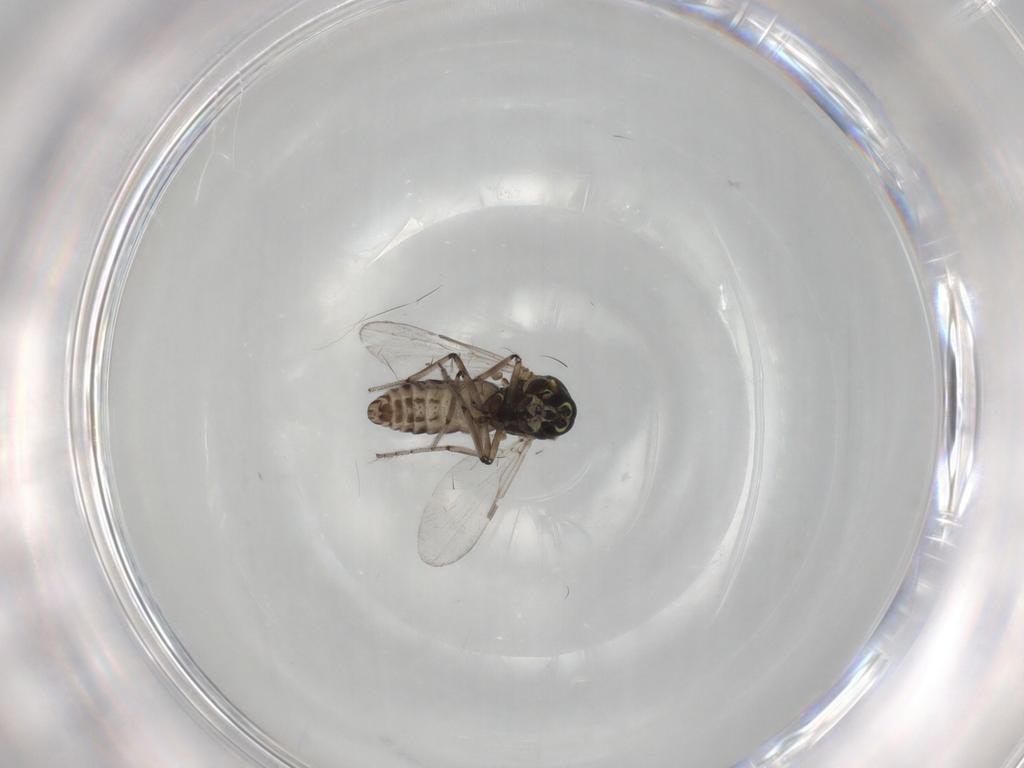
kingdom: Animalia
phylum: Arthropoda
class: Insecta
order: Diptera
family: Ceratopogonidae
